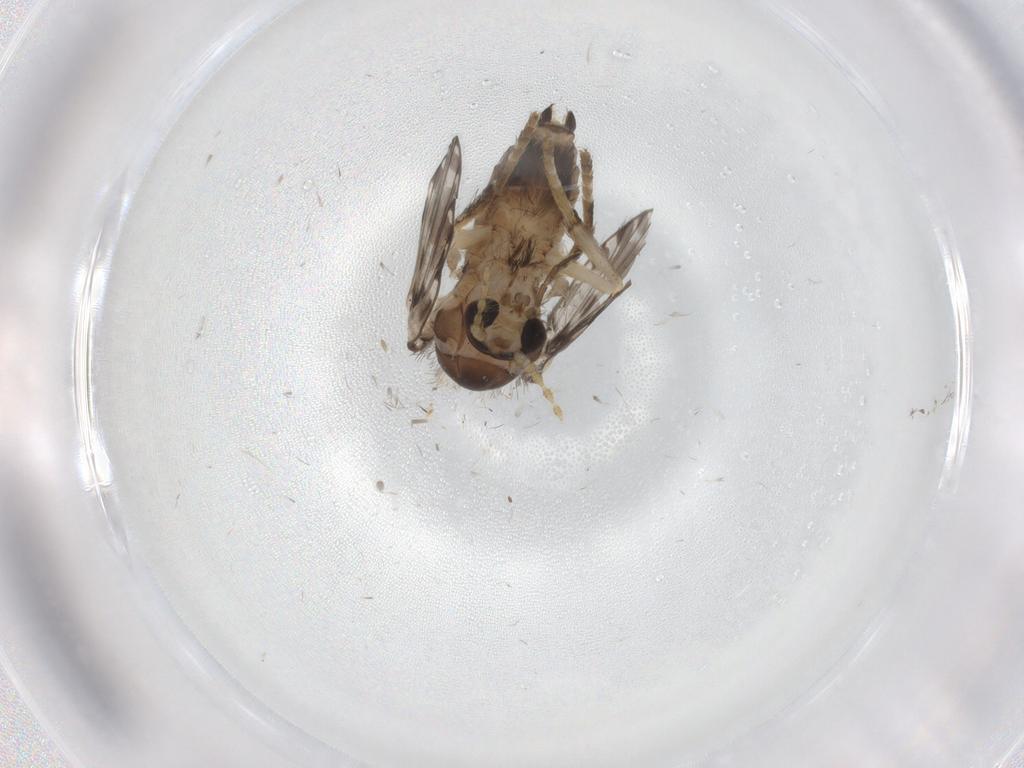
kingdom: Animalia
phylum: Arthropoda
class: Insecta
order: Diptera
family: Psychodidae
